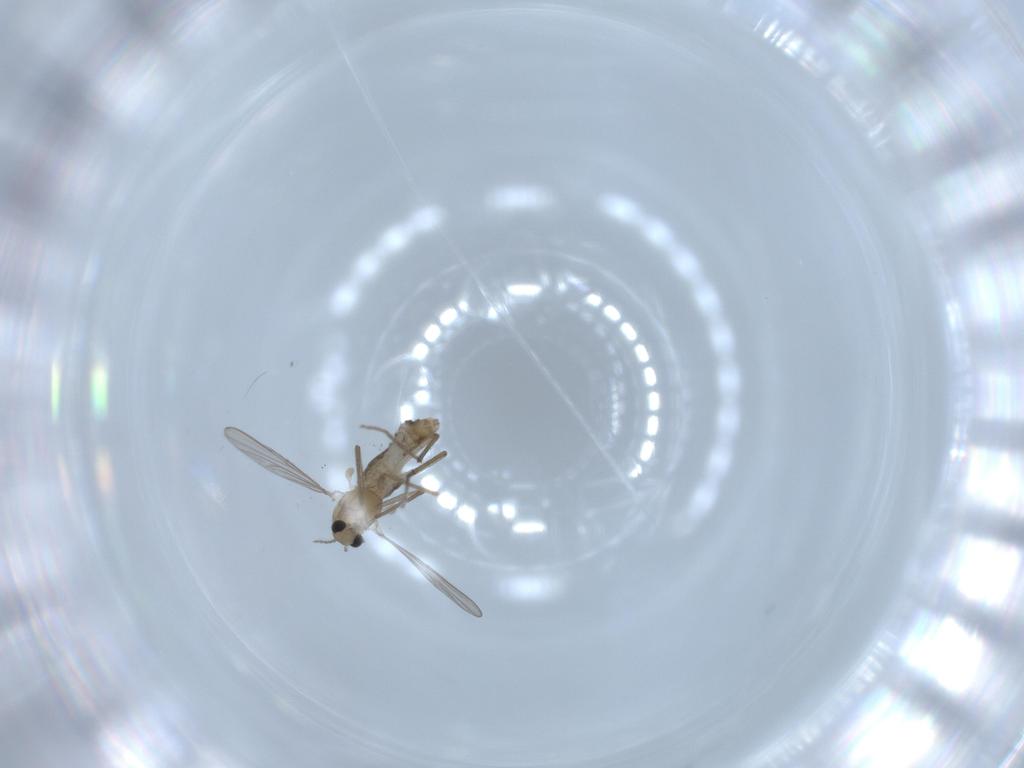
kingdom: Animalia
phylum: Arthropoda
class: Insecta
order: Diptera
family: Chironomidae
